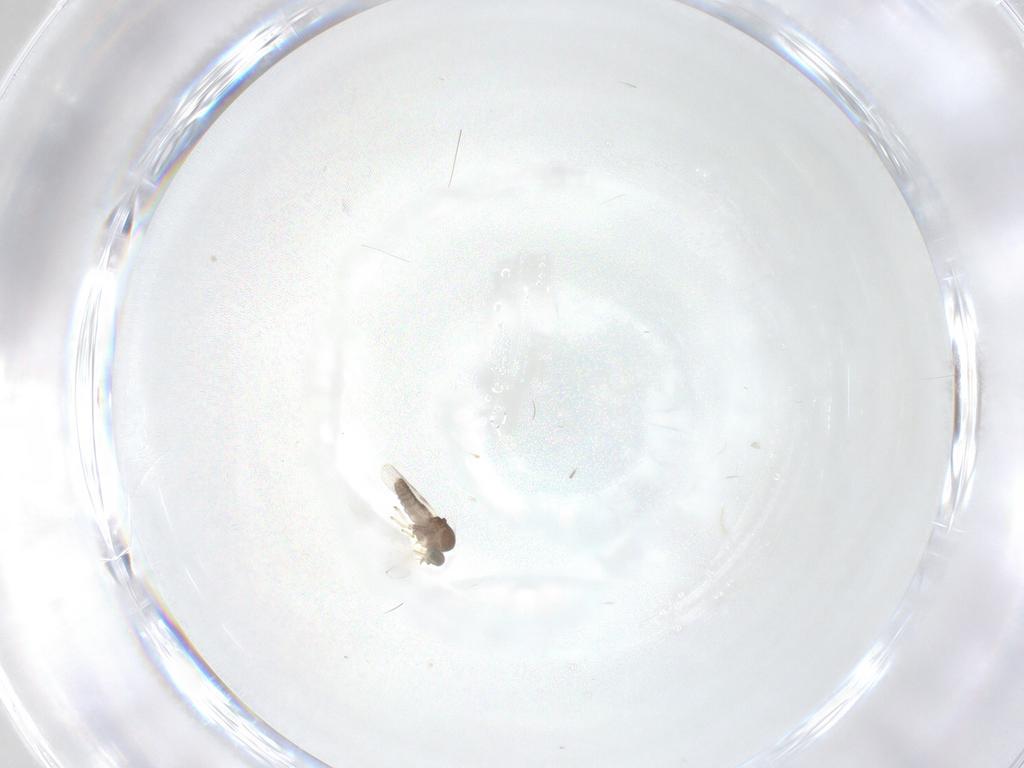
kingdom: Animalia
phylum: Arthropoda
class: Insecta
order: Diptera
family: Phoridae
